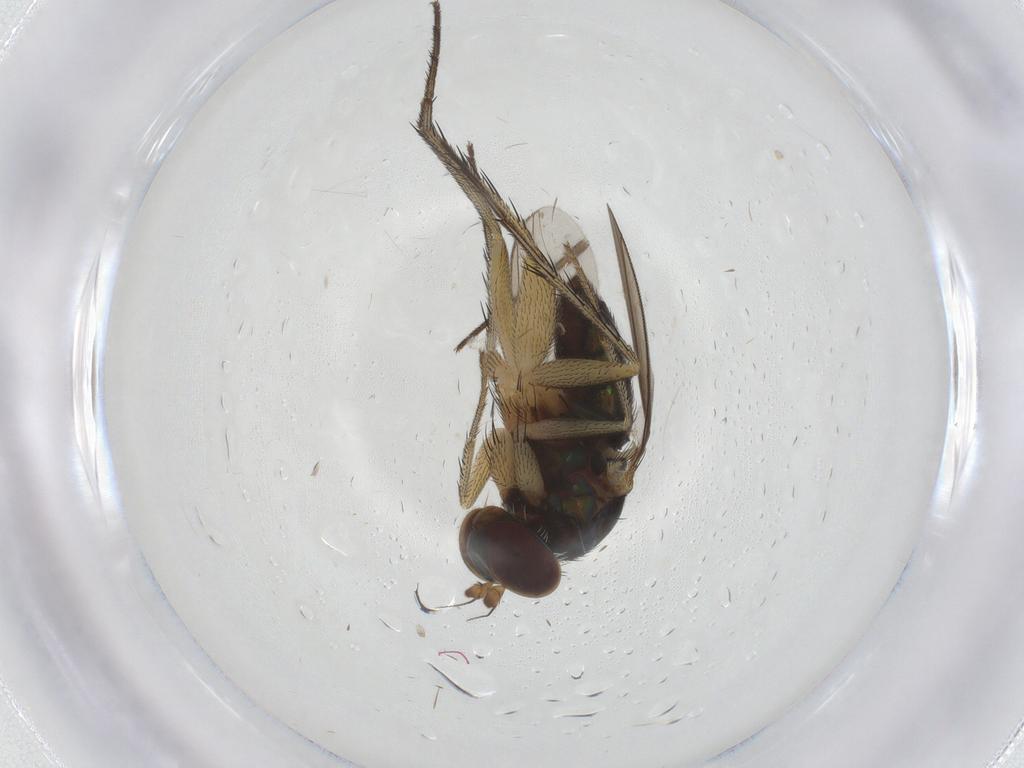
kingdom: Animalia
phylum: Arthropoda
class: Insecta
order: Diptera
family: Dolichopodidae
